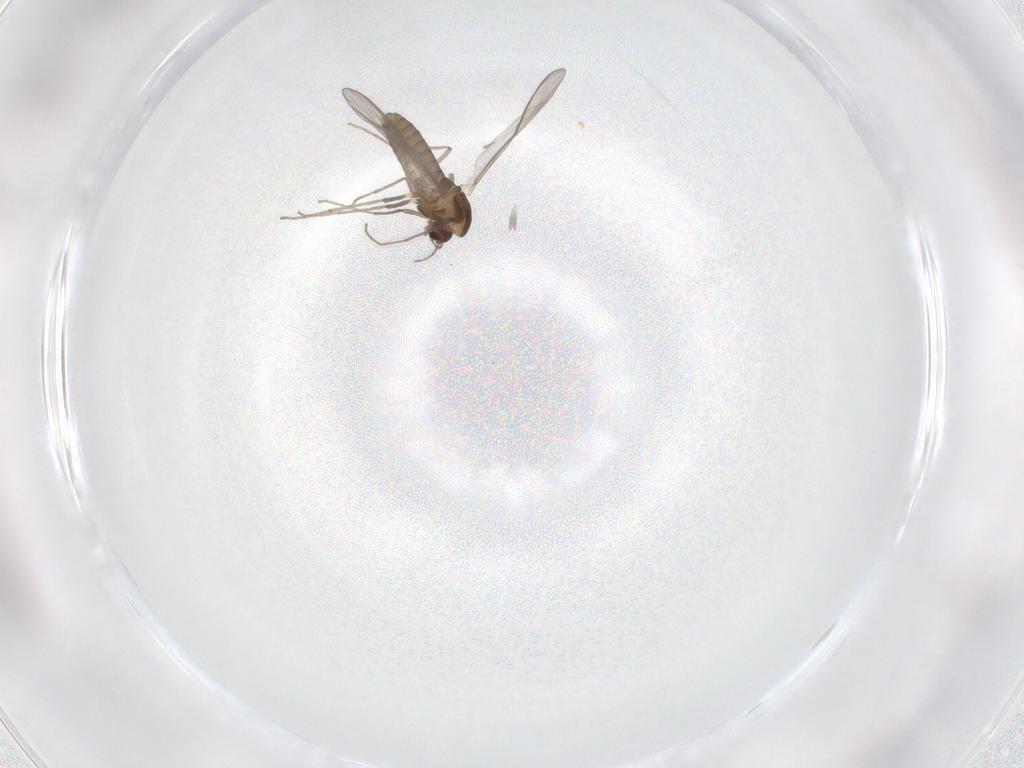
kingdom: Animalia
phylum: Arthropoda
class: Insecta
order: Diptera
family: Chironomidae
